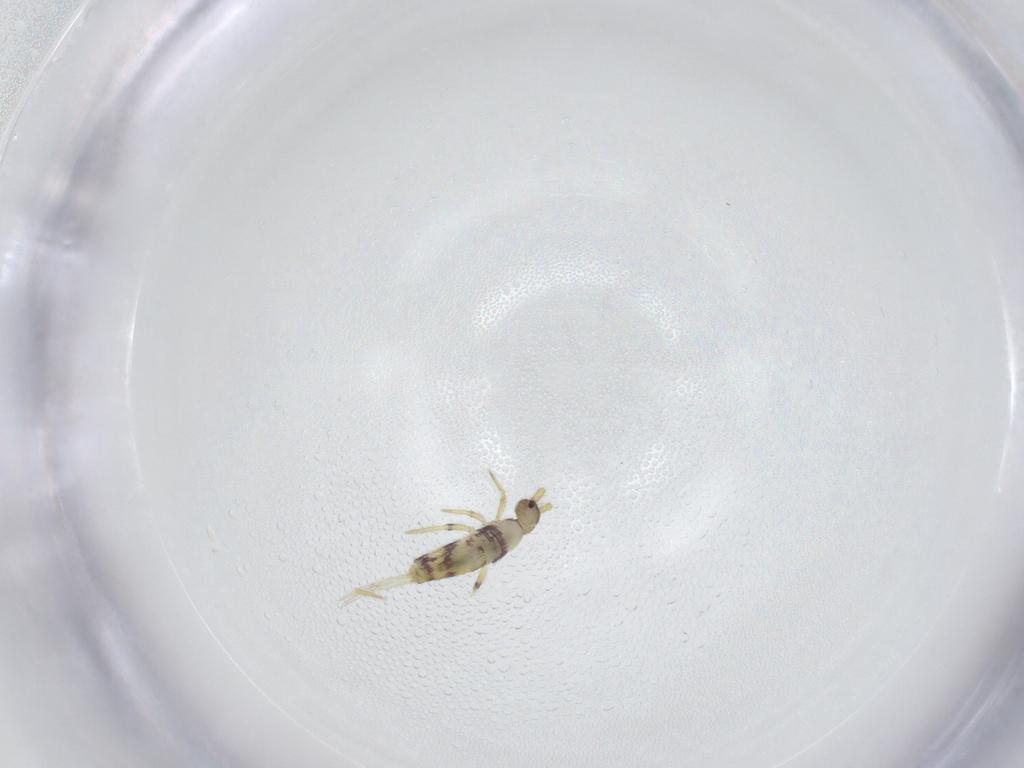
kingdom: Animalia
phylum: Arthropoda
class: Collembola
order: Entomobryomorpha
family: Entomobryidae
